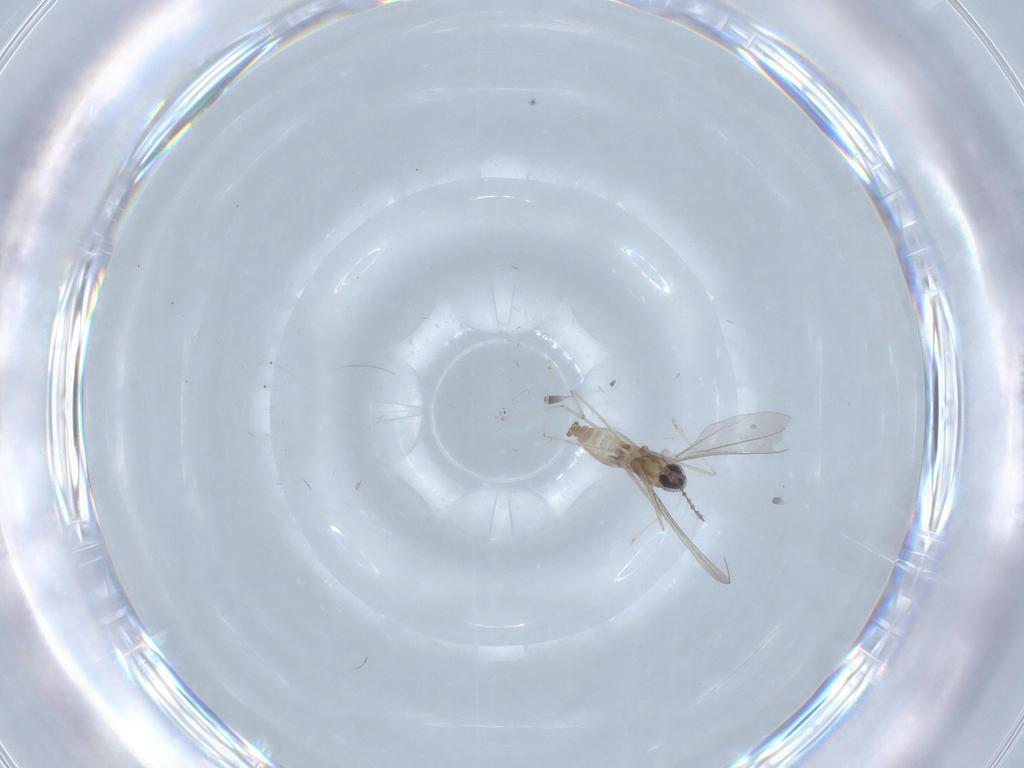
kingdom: Animalia
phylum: Arthropoda
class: Insecta
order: Diptera
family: Cecidomyiidae
